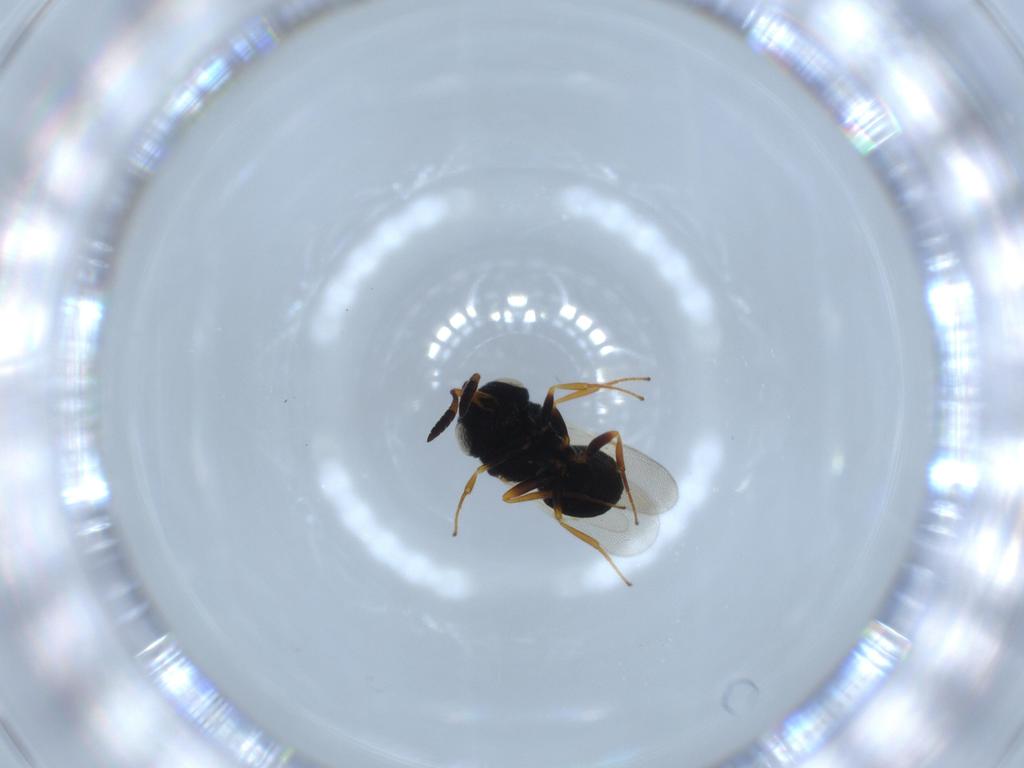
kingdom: Animalia
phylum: Arthropoda
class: Insecta
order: Hymenoptera
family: Scelionidae
